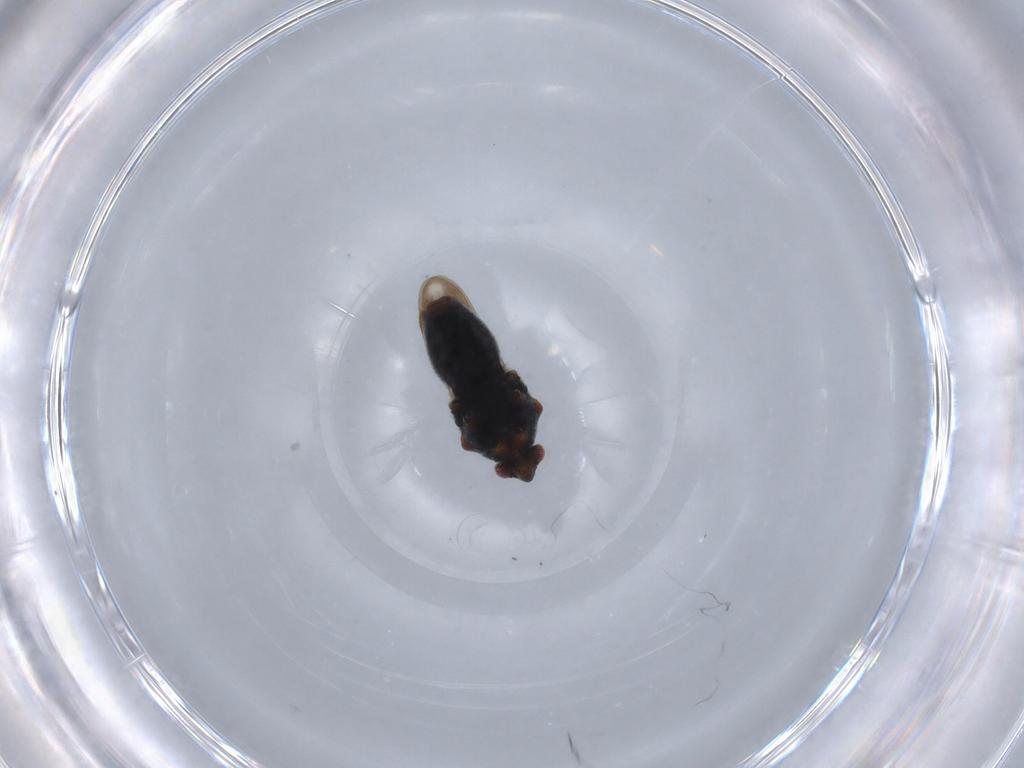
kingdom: Animalia
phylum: Arthropoda
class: Insecta
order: Hemiptera
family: Veliidae
